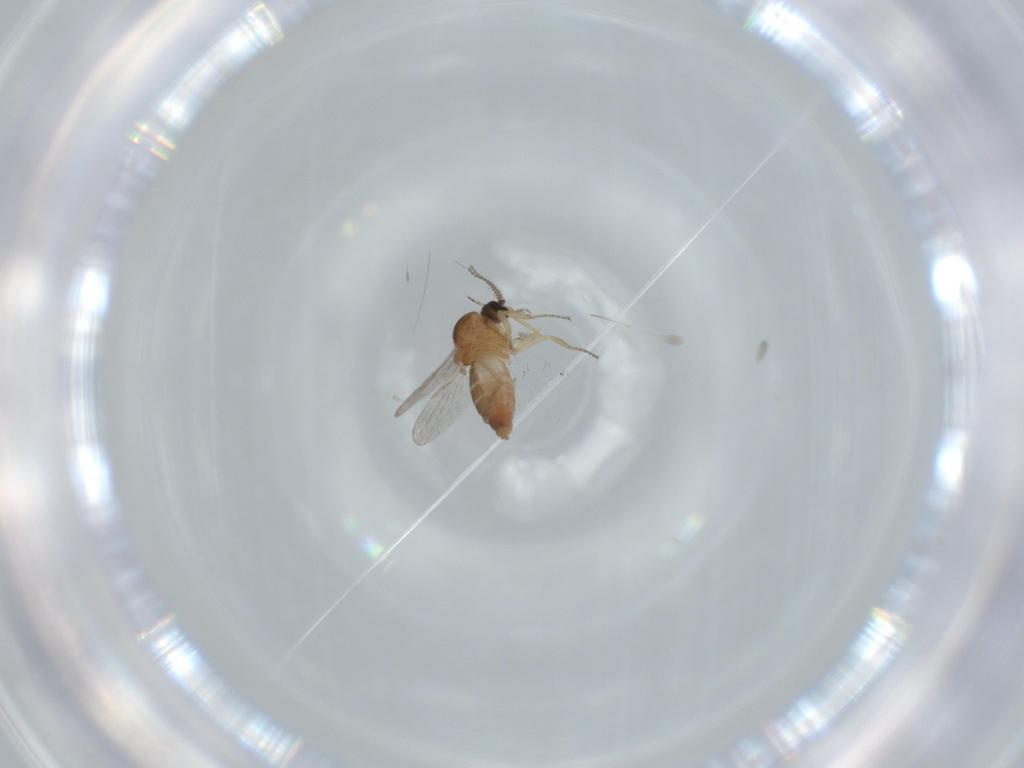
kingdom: Animalia
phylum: Arthropoda
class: Insecta
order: Diptera
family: Ceratopogonidae
